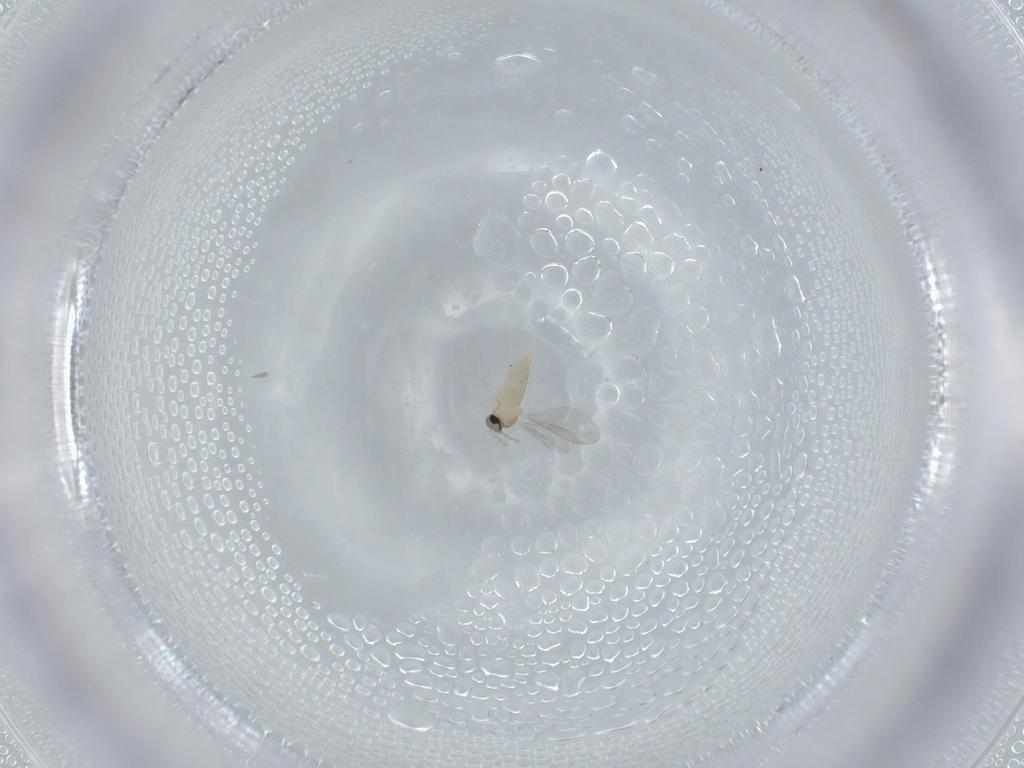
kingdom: Animalia
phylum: Arthropoda
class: Insecta
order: Diptera
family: Cecidomyiidae
